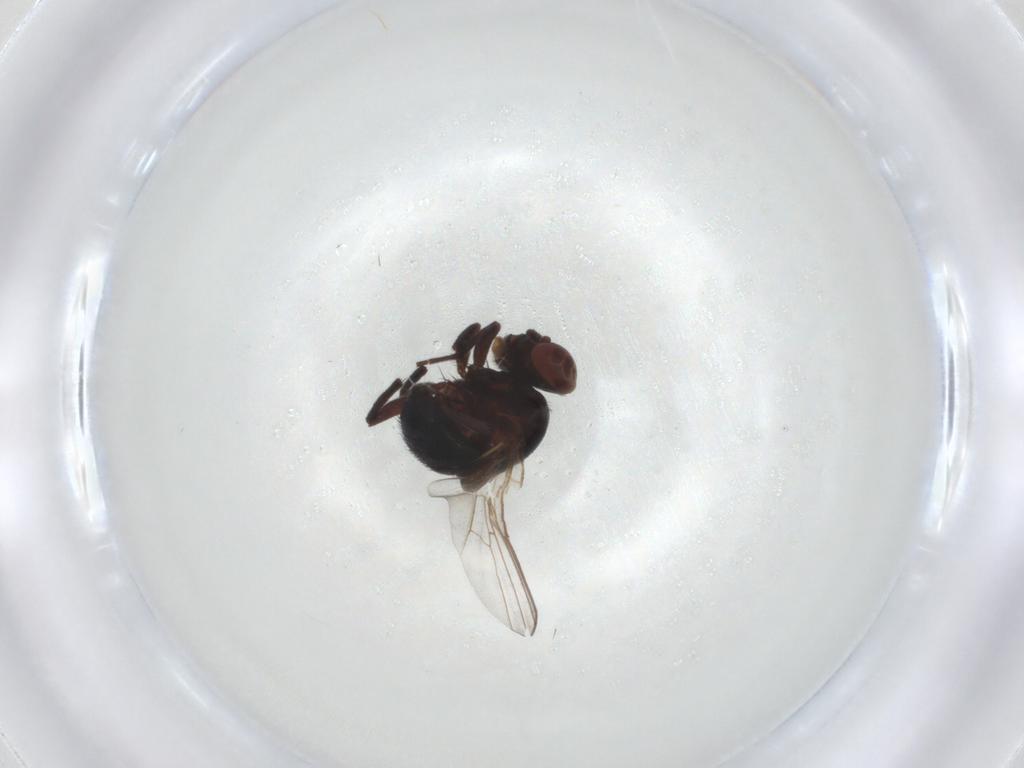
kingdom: Animalia
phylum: Arthropoda
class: Insecta
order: Diptera
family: Agromyzidae
